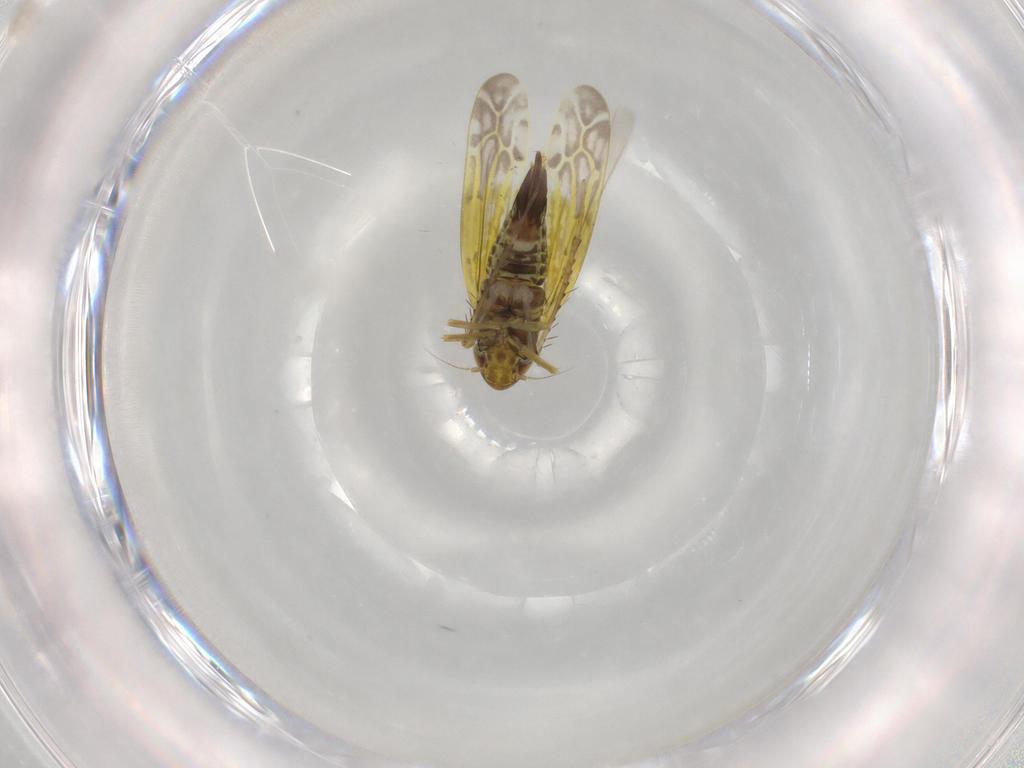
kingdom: Animalia
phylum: Arthropoda
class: Insecta
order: Hemiptera
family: Cicadellidae
